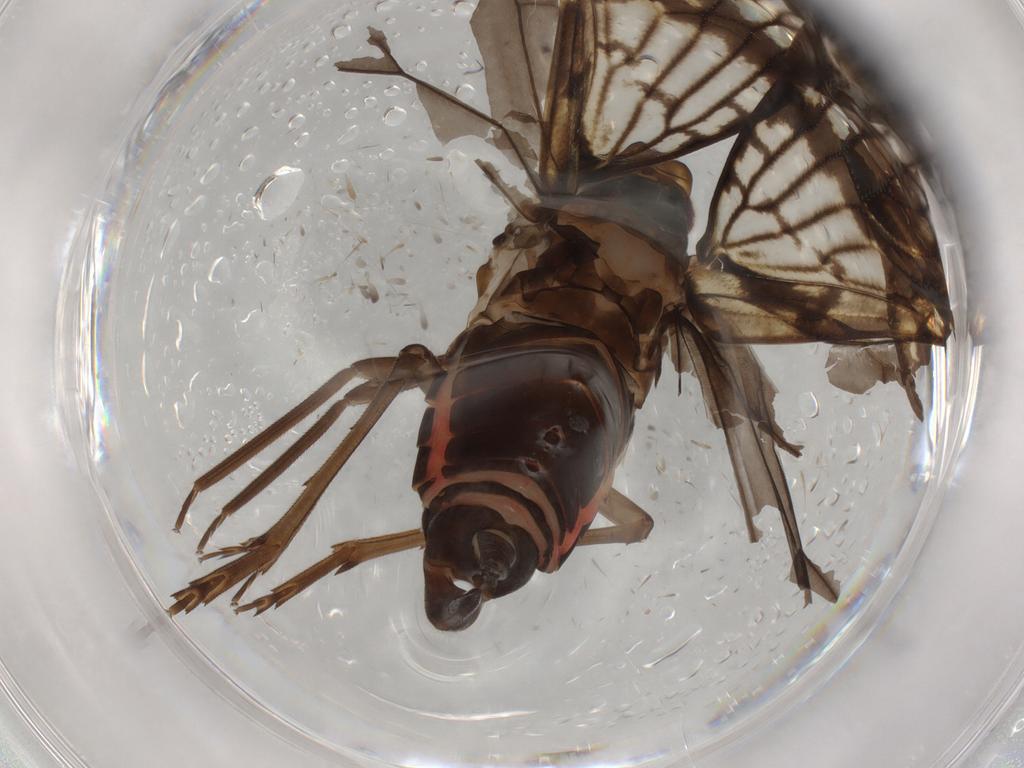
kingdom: Animalia
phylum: Arthropoda
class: Insecta
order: Hemiptera
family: Cixiidae
